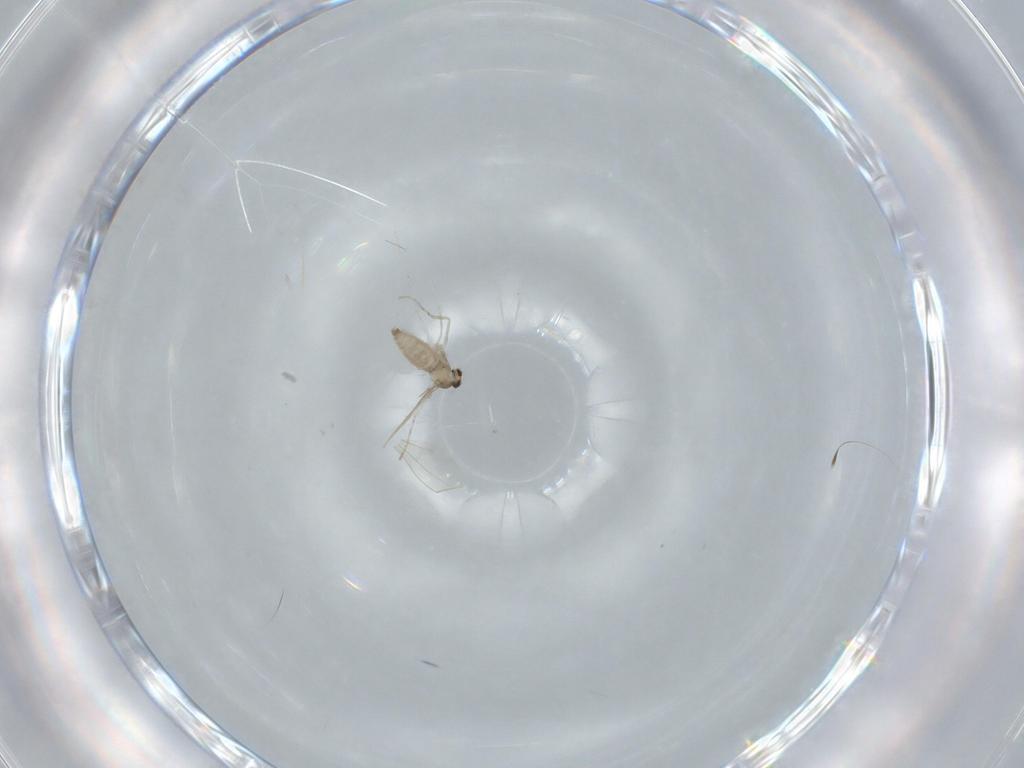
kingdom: Animalia
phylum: Arthropoda
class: Insecta
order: Diptera
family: Cecidomyiidae
